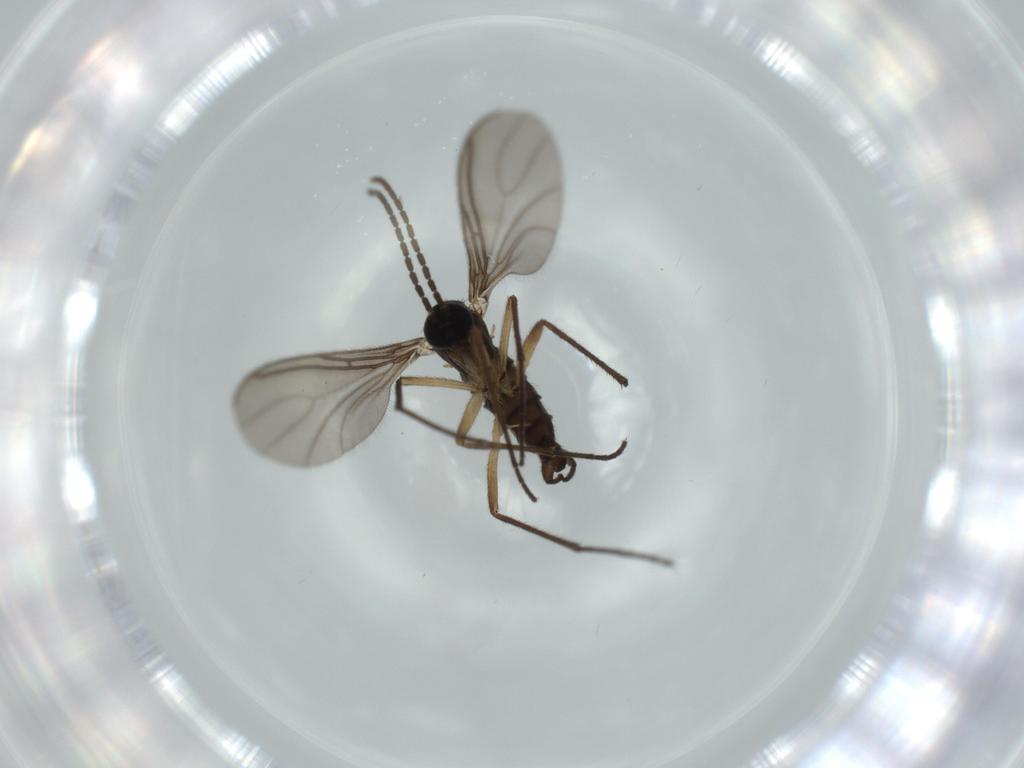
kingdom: Animalia
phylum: Arthropoda
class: Insecta
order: Diptera
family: Sciaridae
